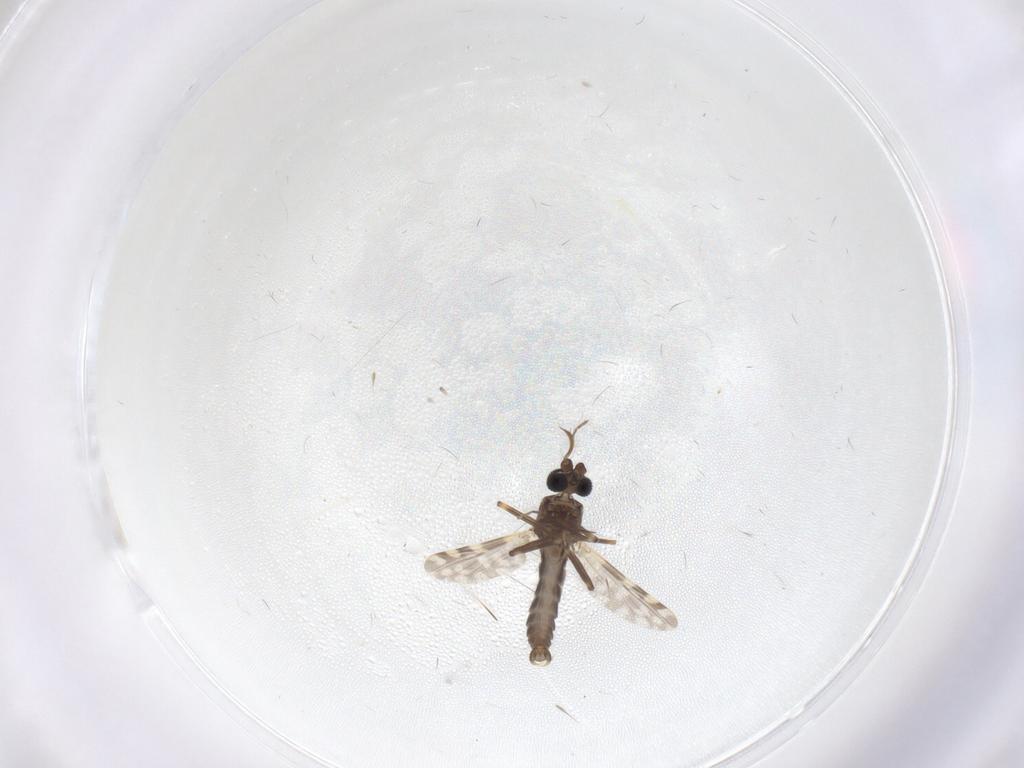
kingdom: Animalia
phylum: Arthropoda
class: Insecta
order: Diptera
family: Ceratopogonidae
